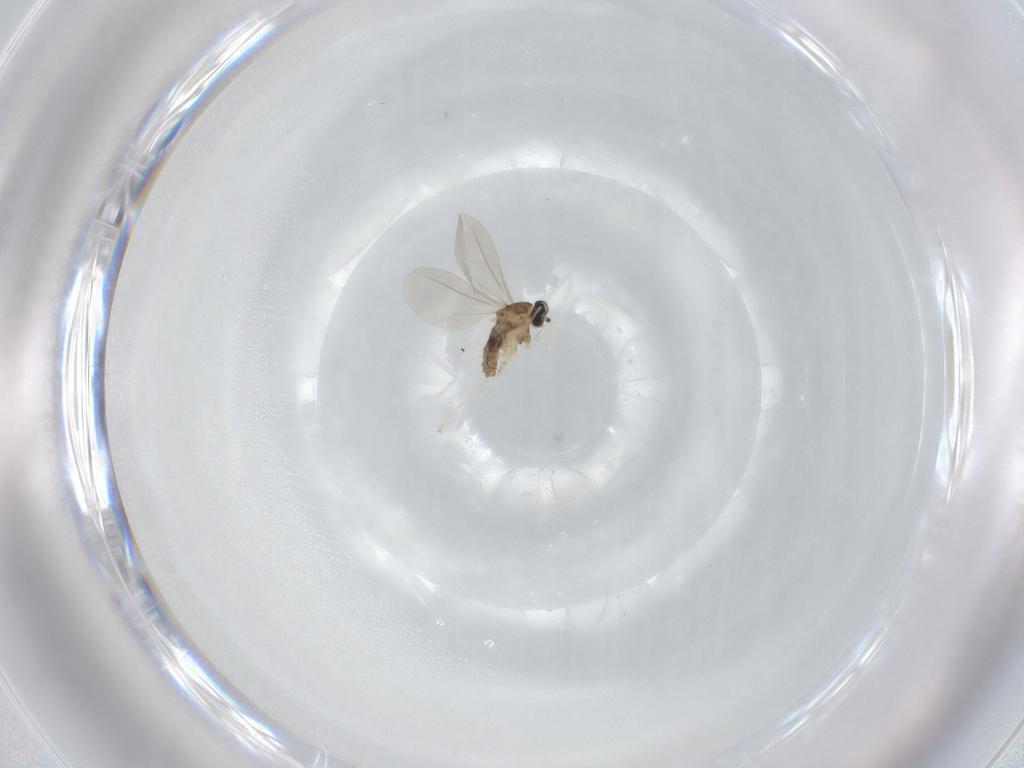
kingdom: Animalia
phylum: Arthropoda
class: Insecta
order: Diptera
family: Cecidomyiidae
